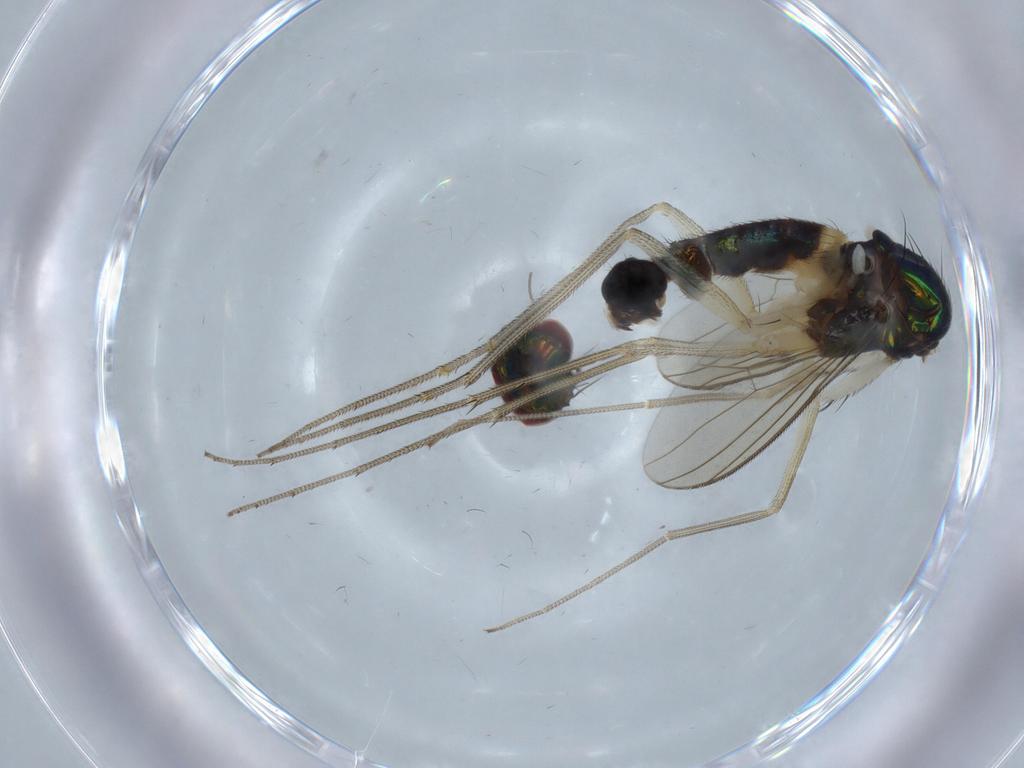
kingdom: Animalia
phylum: Arthropoda
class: Insecta
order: Diptera
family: Dolichopodidae
